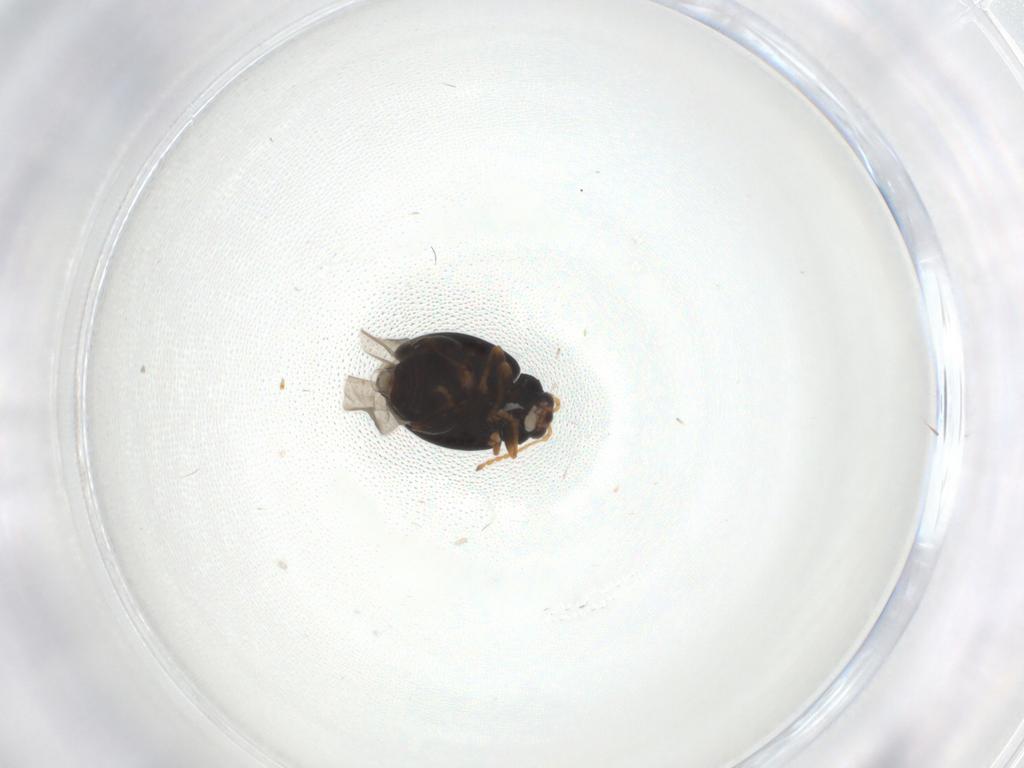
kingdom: Animalia
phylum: Arthropoda
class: Insecta
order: Coleoptera
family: Chrysomelidae
